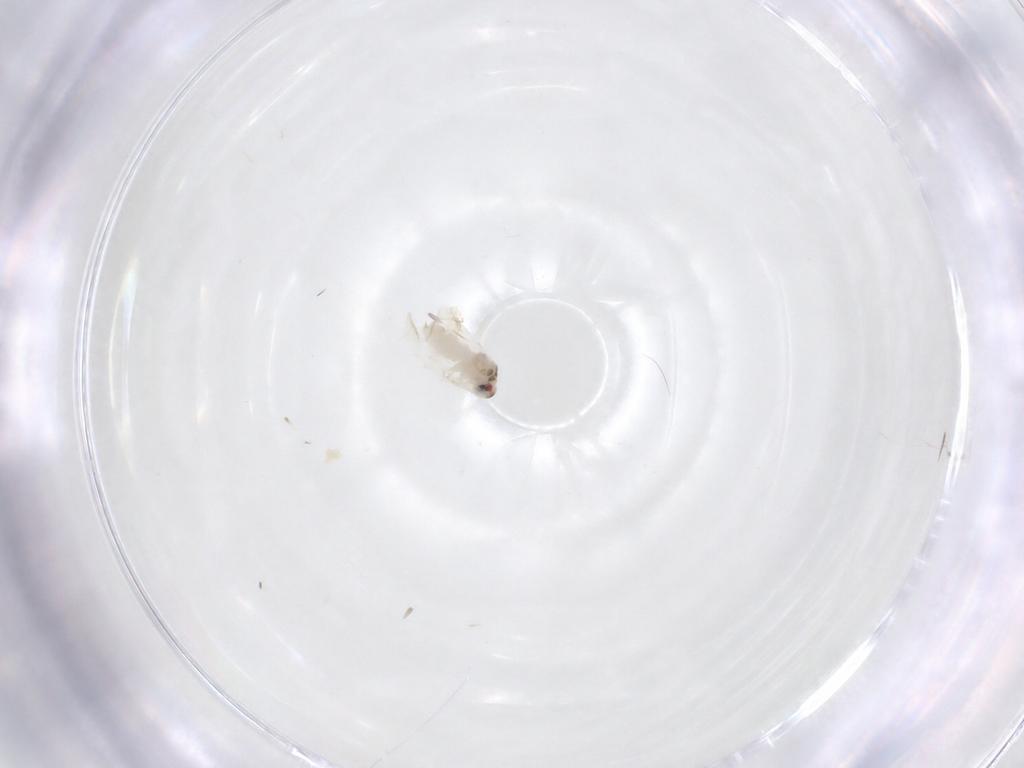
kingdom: Animalia
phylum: Arthropoda
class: Insecta
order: Hemiptera
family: Aleyrodidae
